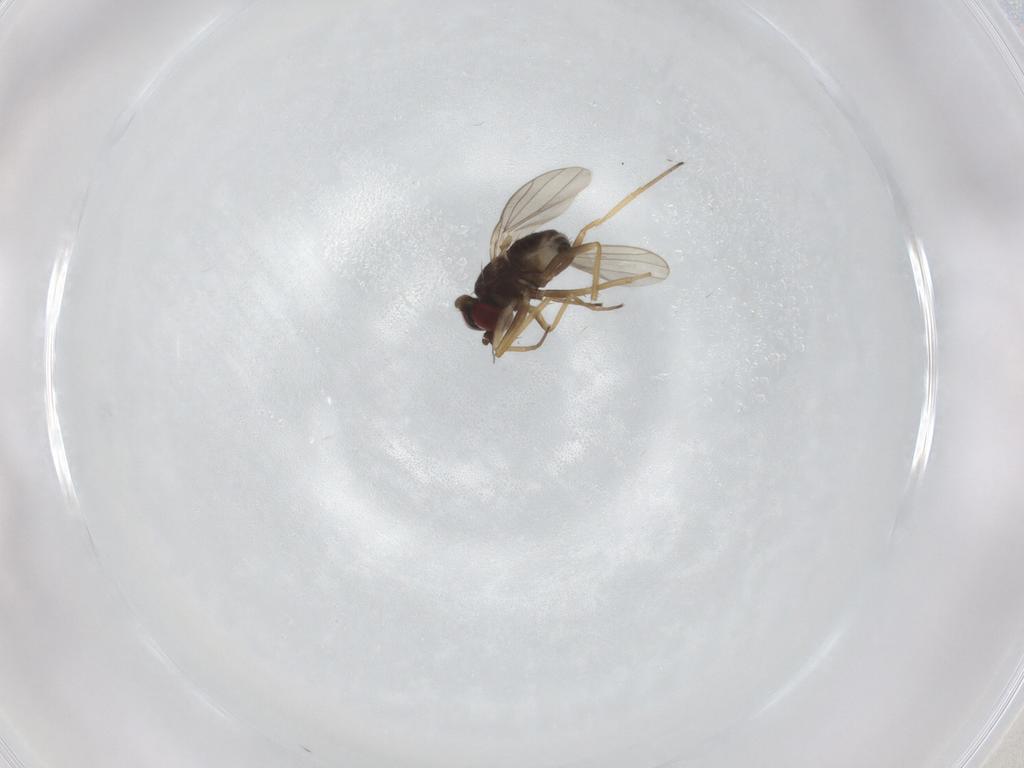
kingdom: Animalia
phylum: Arthropoda
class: Insecta
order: Diptera
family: Dolichopodidae
